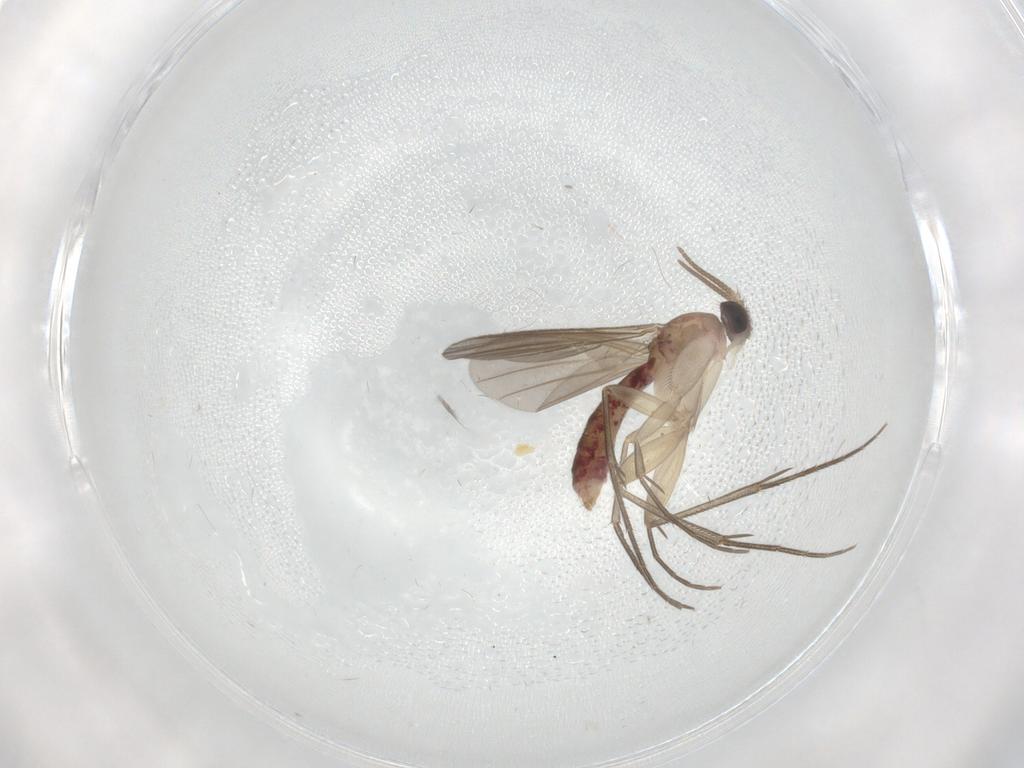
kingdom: Animalia
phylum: Arthropoda
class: Insecta
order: Diptera
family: Mycetophilidae
